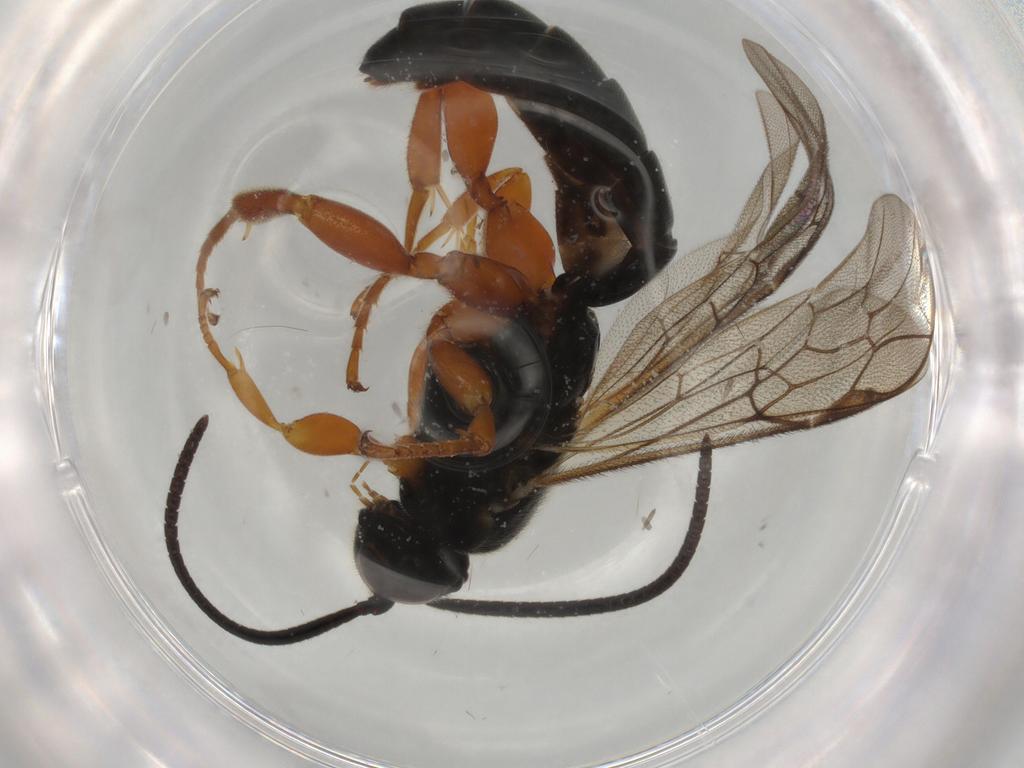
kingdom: Animalia
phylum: Arthropoda
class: Insecta
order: Hymenoptera
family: Ichneumonidae
